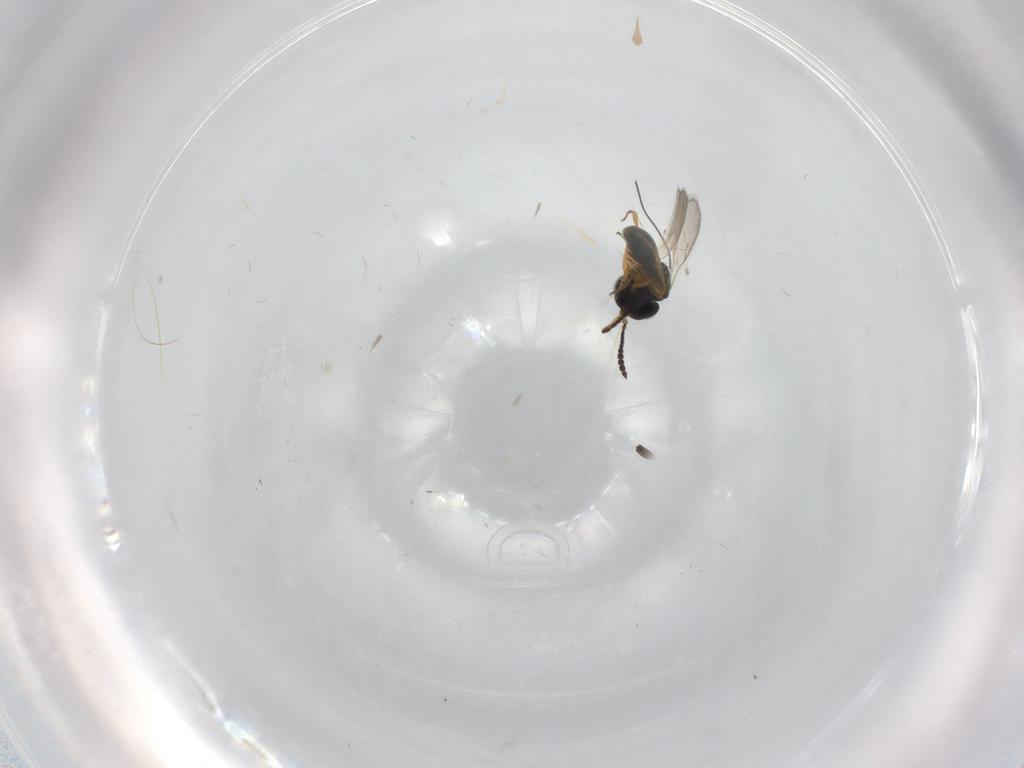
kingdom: Animalia
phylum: Arthropoda
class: Insecta
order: Hymenoptera
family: Scelionidae
